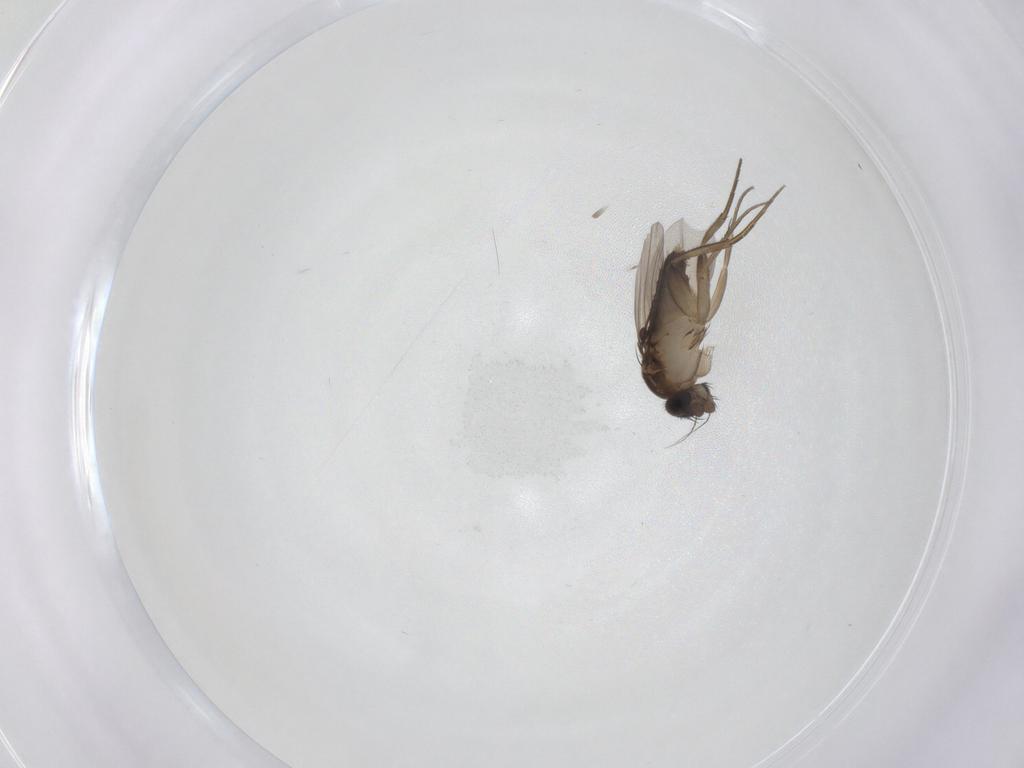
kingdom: Animalia
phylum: Arthropoda
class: Insecta
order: Diptera
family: Phoridae
